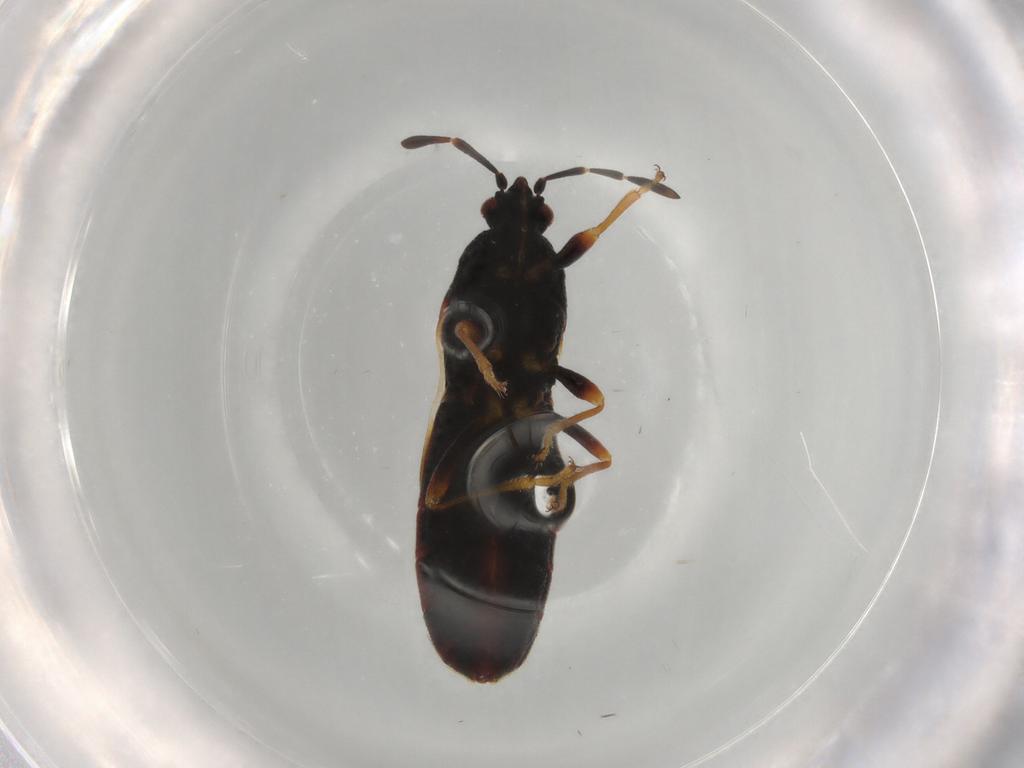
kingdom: Animalia
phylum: Arthropoda
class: Insecta
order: Hemiptera
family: Blissidae
